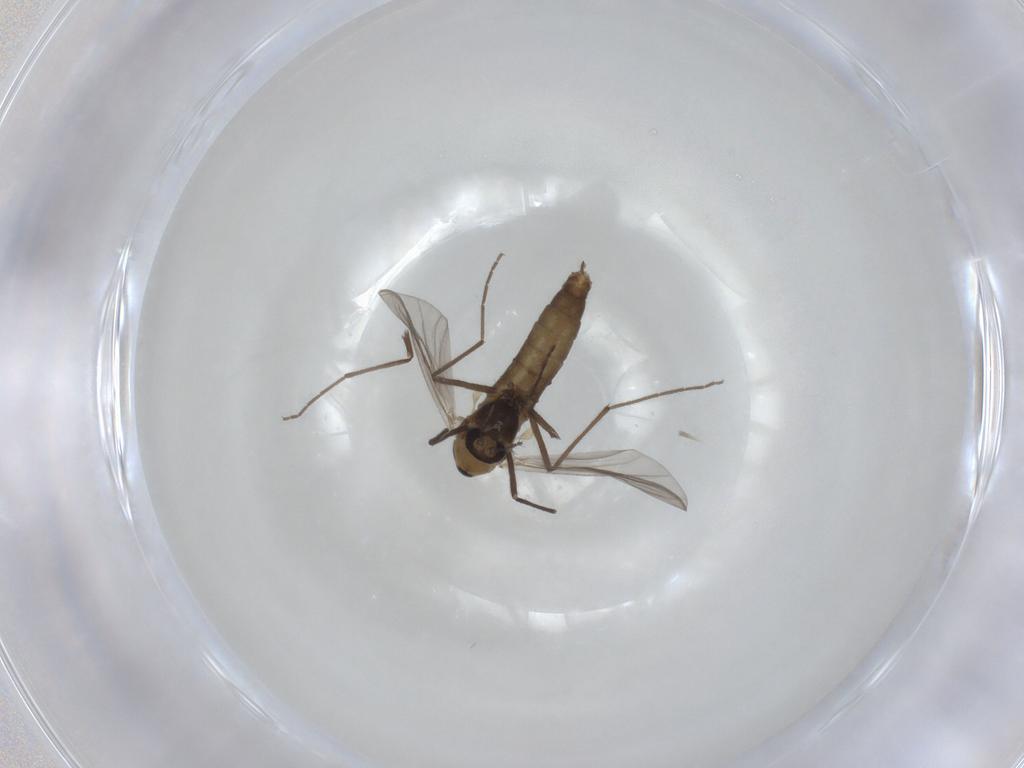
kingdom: Animalia
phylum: Arthropoda
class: Insecta
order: Diptera
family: Chironomidae
